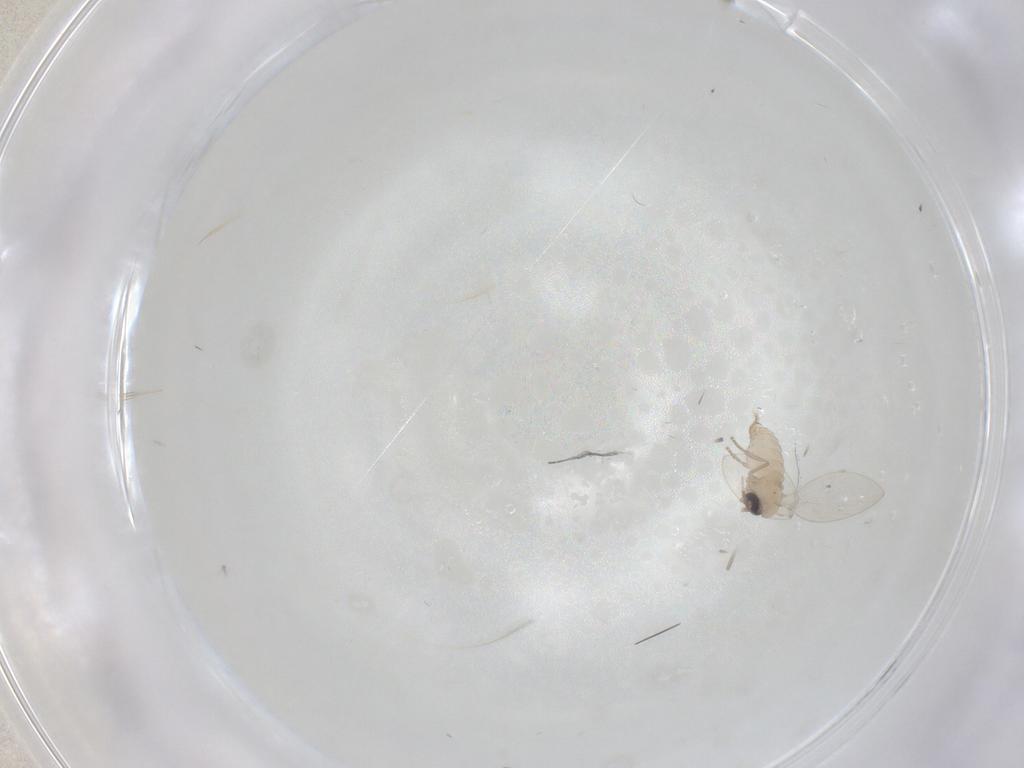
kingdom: Animalia
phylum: Arthropoda
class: Insecta
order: Diptera
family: Psychodidae
